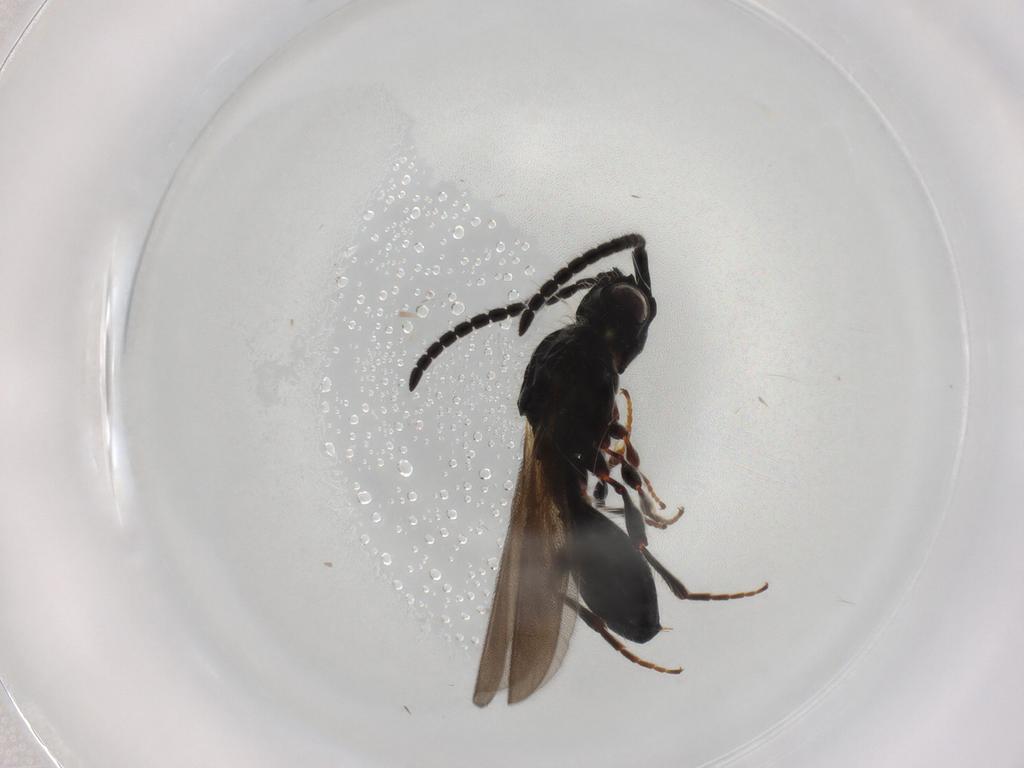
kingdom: Animalia
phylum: Arthropoda
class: Insecta
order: Hymenoptera
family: Diapriidae
